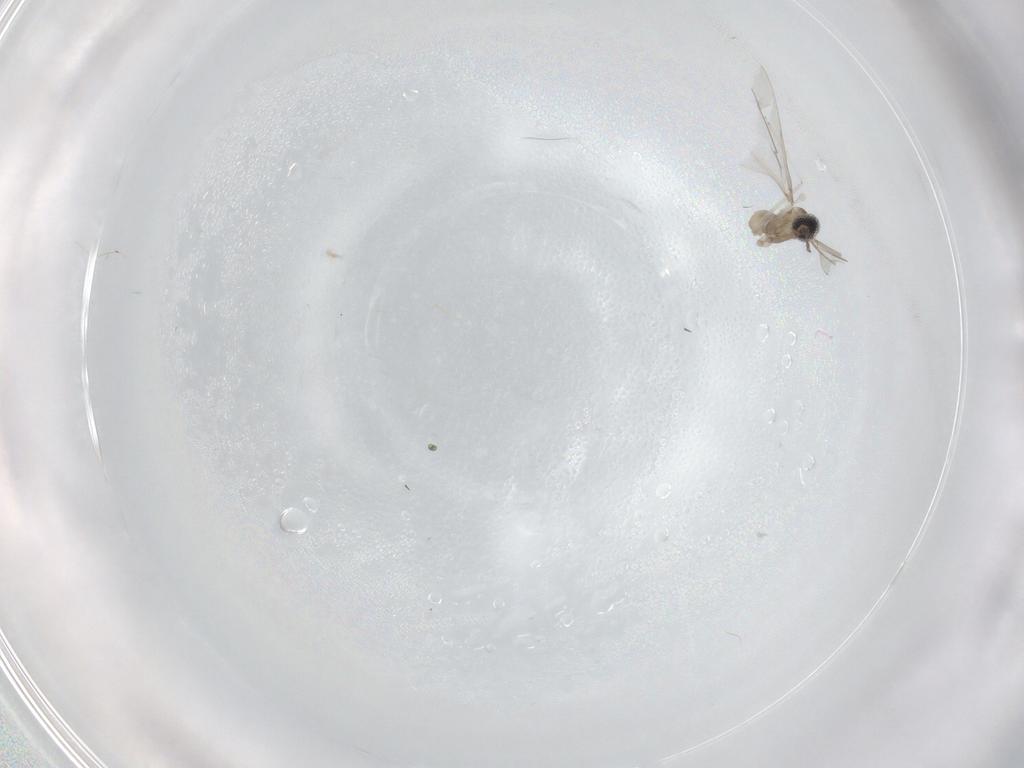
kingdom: Animalia
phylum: Arthropoda
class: Insecta
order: Diptera
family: Cecidomyiidae
